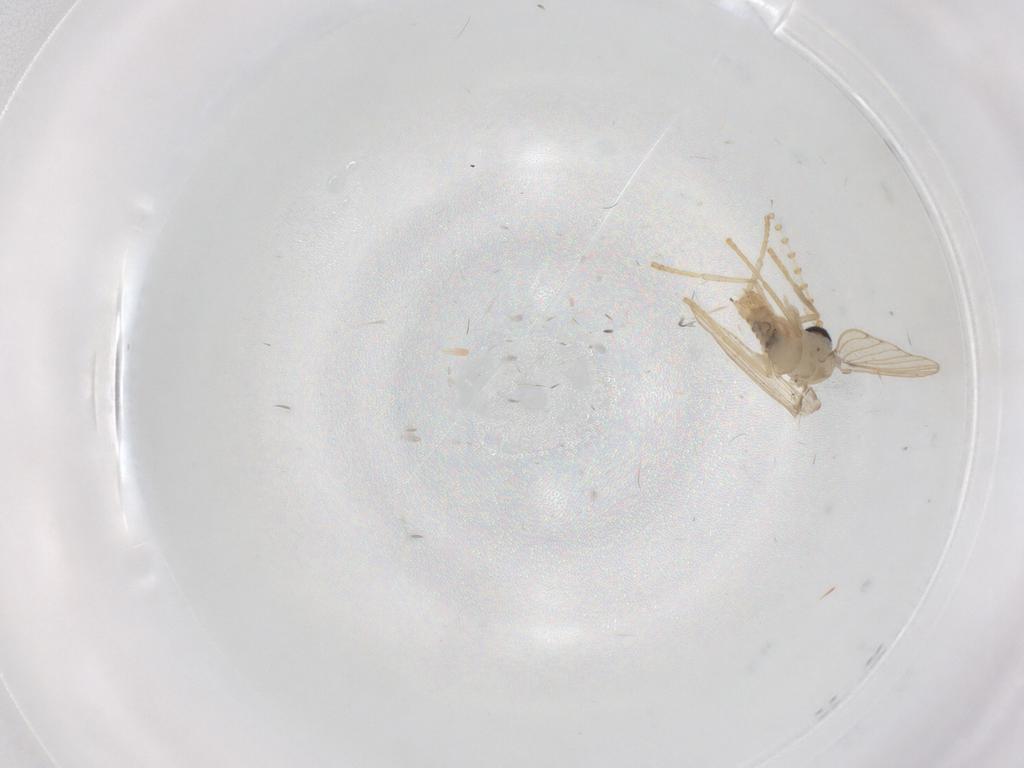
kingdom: Animalia
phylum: Arthropoda
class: Insecta
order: Diptera
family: Psychodidae
